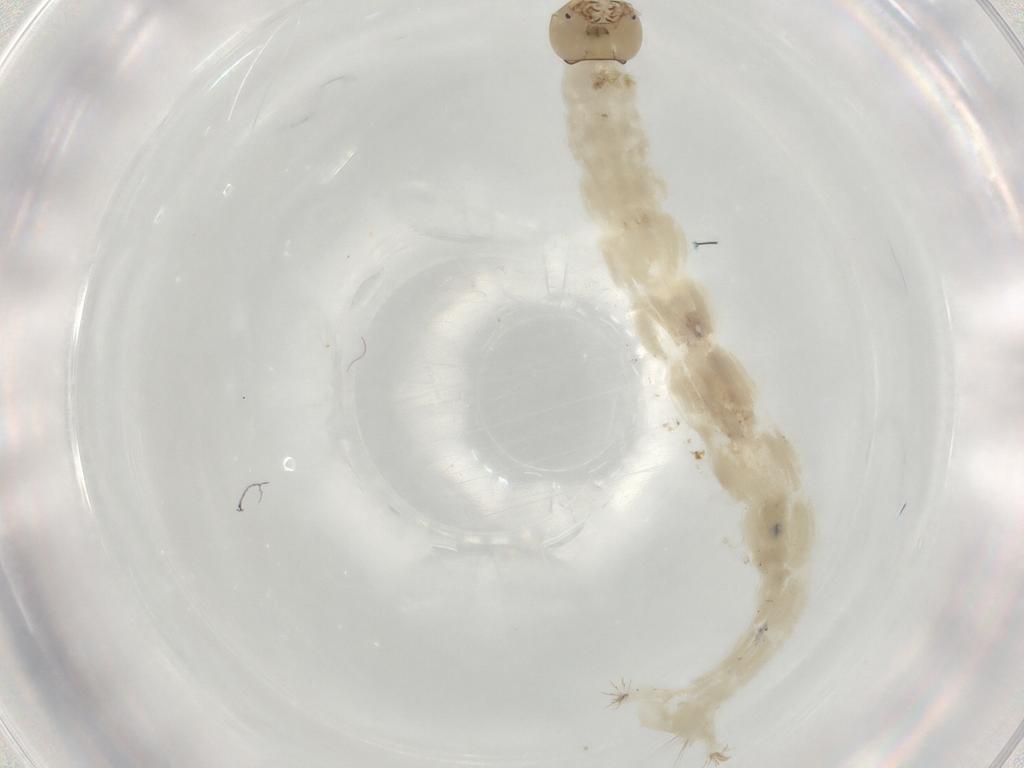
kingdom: Animalia
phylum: Arthropoda
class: Insecta
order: Diptera
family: Chironomidae
